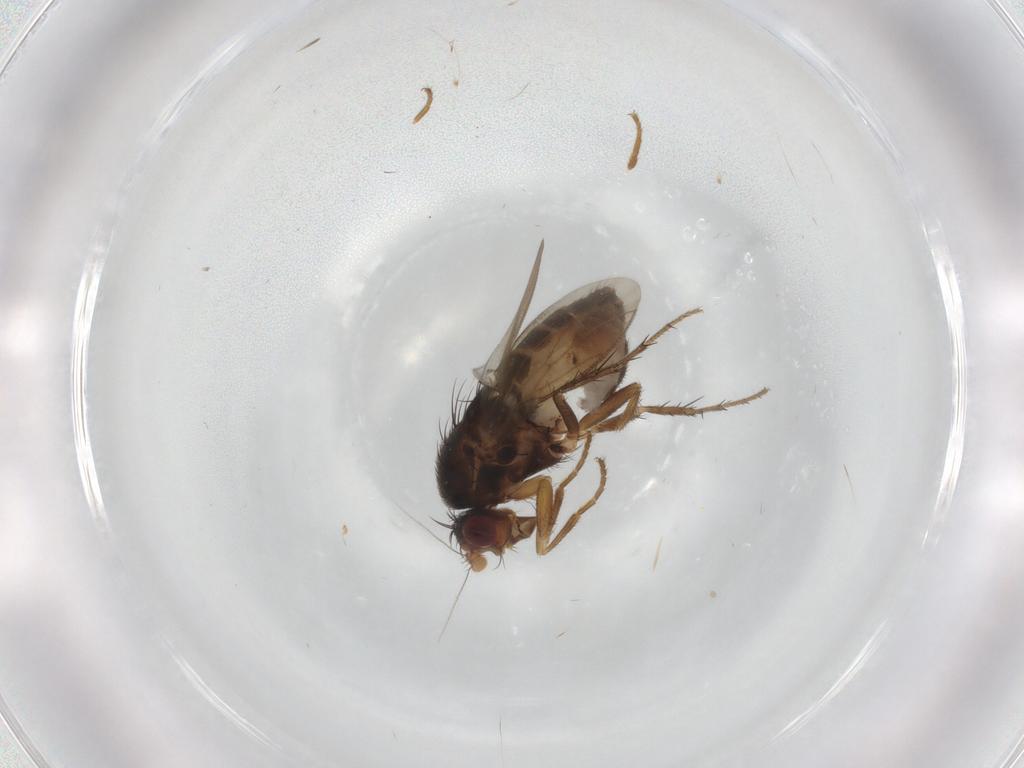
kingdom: Animalia
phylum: Arthropoda
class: Insecta
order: Diptera
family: Sphaeroceridae
